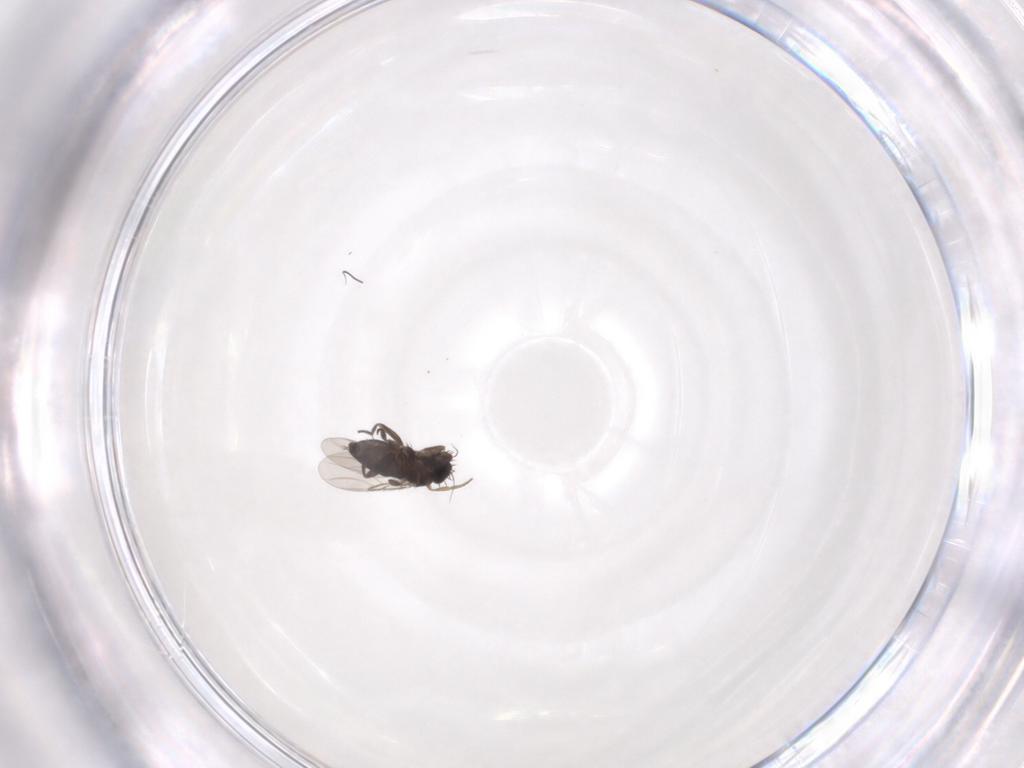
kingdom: Animalia
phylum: Arthropoda
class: Insecta
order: Diptera
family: Phoridae
